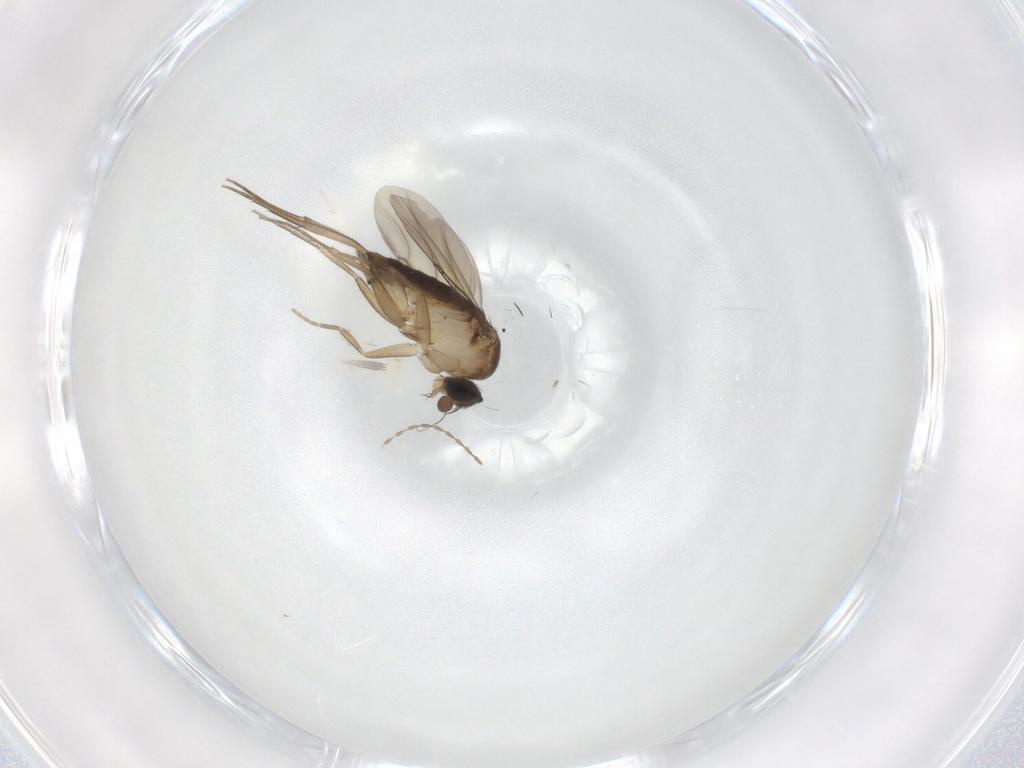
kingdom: Animalia
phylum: Arthropoda
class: Insecta
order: Diptera
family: Phoridae
